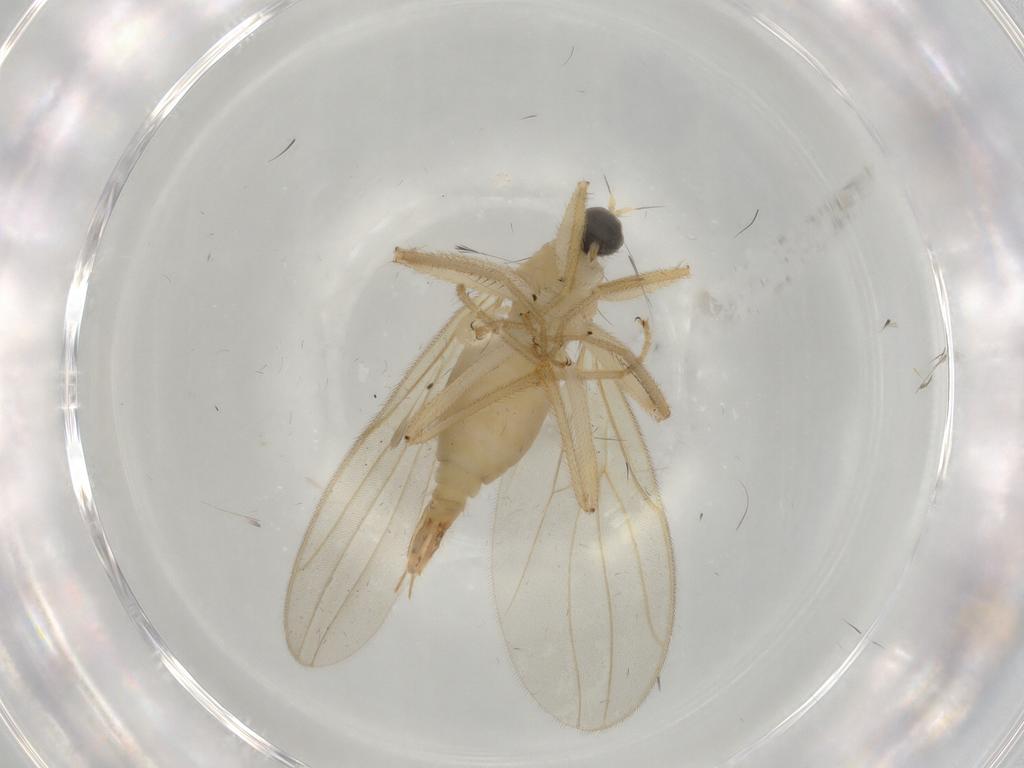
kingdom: Animalia
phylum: Arthropoda
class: Insecta
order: Diptera
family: Hybotidae
